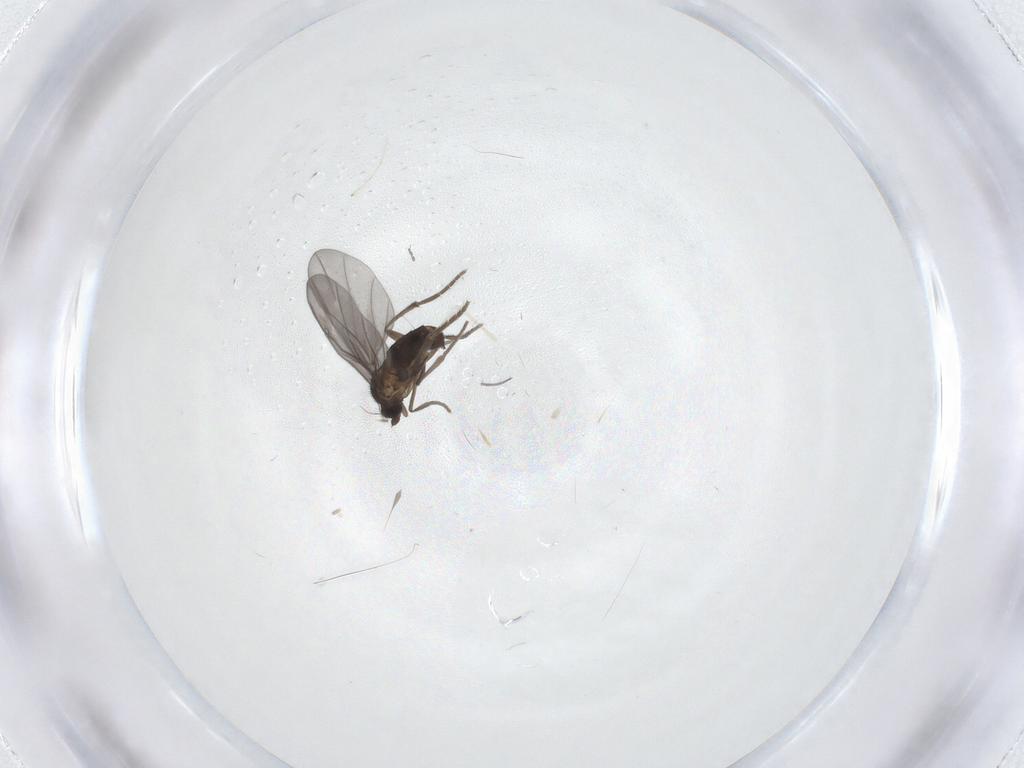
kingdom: Animalia
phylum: Arthropoda
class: Insecta
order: Diptera
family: Phoridae
